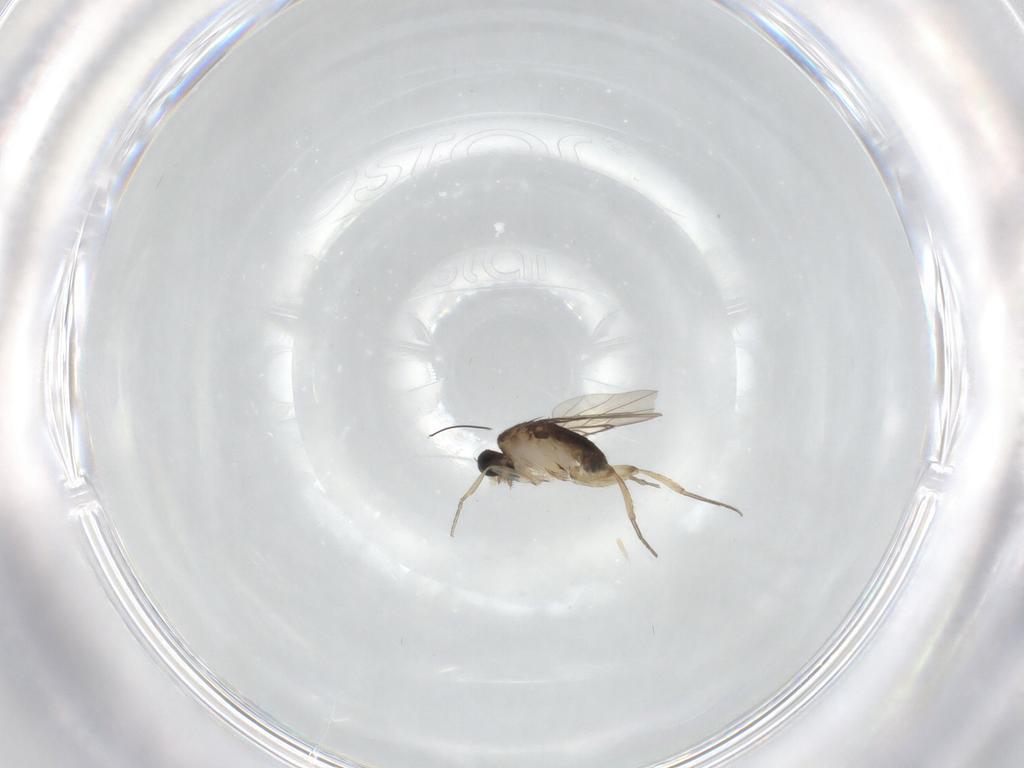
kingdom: Animalia
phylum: Arthropoda
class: Insecta
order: Diptera
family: Phoridae
